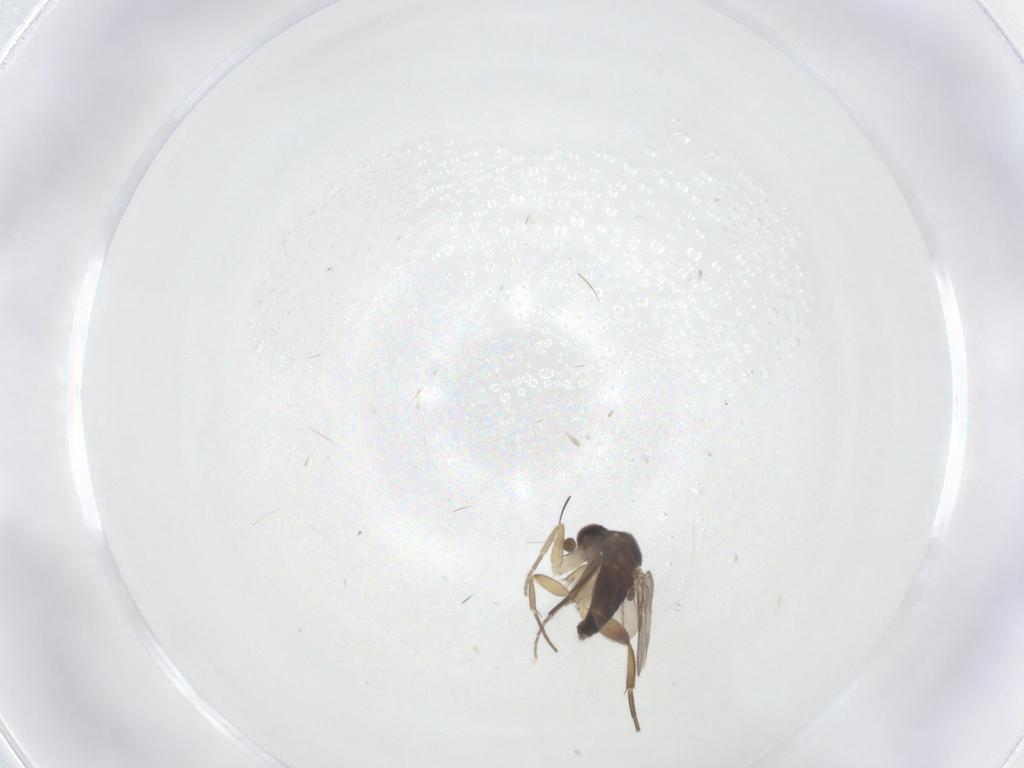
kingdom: Animalia
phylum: Arthropoda
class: Insecta
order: Diptera
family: Phoridae
